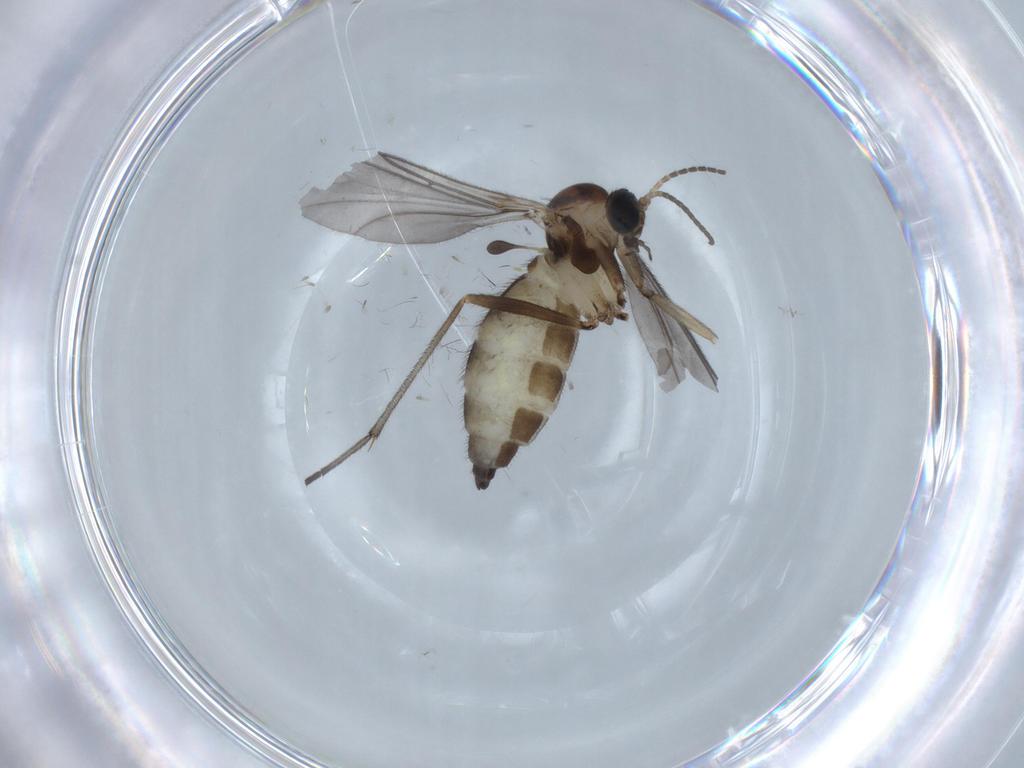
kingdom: Animalia
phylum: Arthropoda
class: Insecta
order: Diptera
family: Sciaridae
